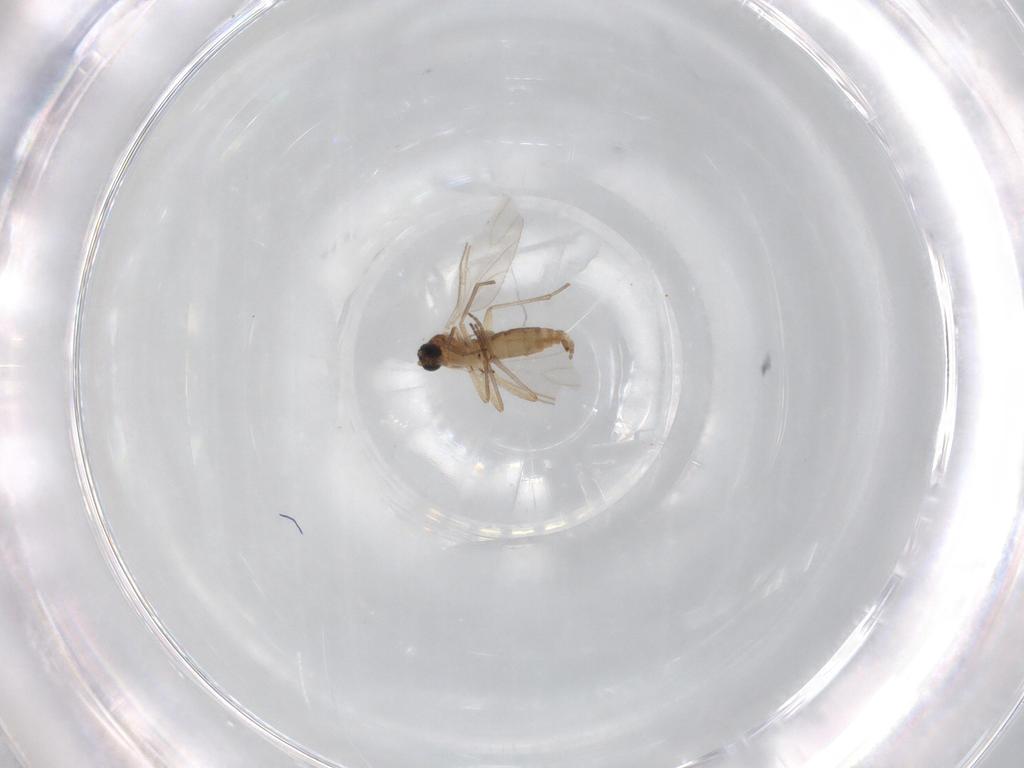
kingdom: Animalia
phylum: Arthropoda
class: Insecta
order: Diptera
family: Sciaridae
